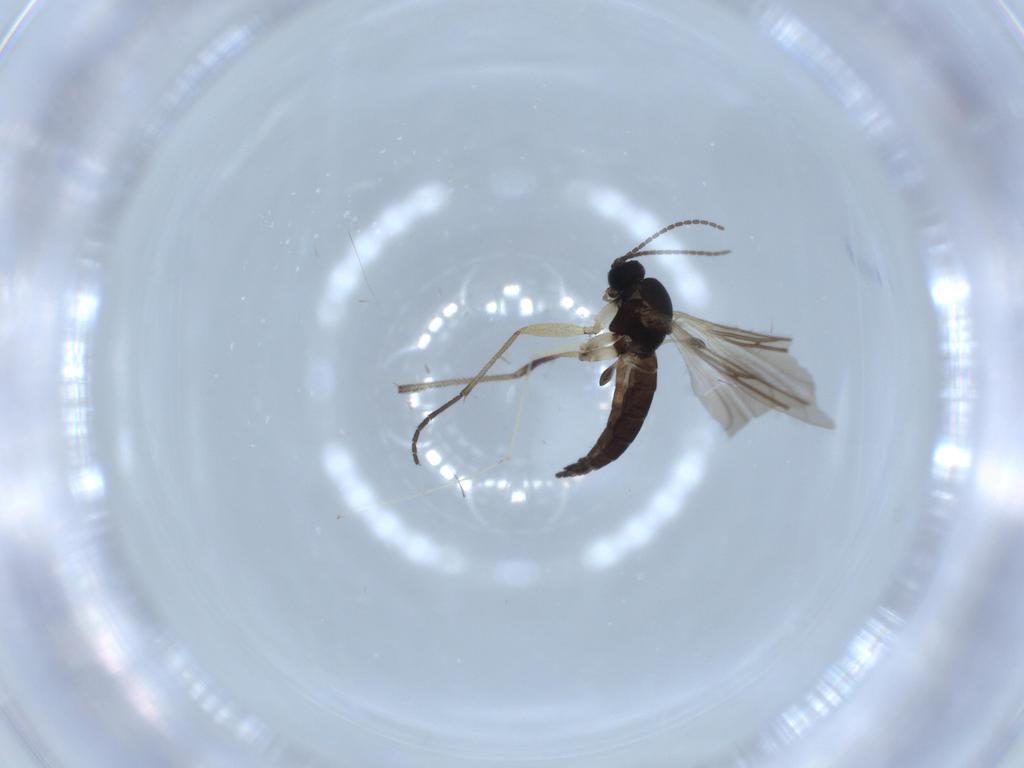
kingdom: Animalia
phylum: Arthropoda
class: Insecta
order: Diptera
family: Sciaridae
